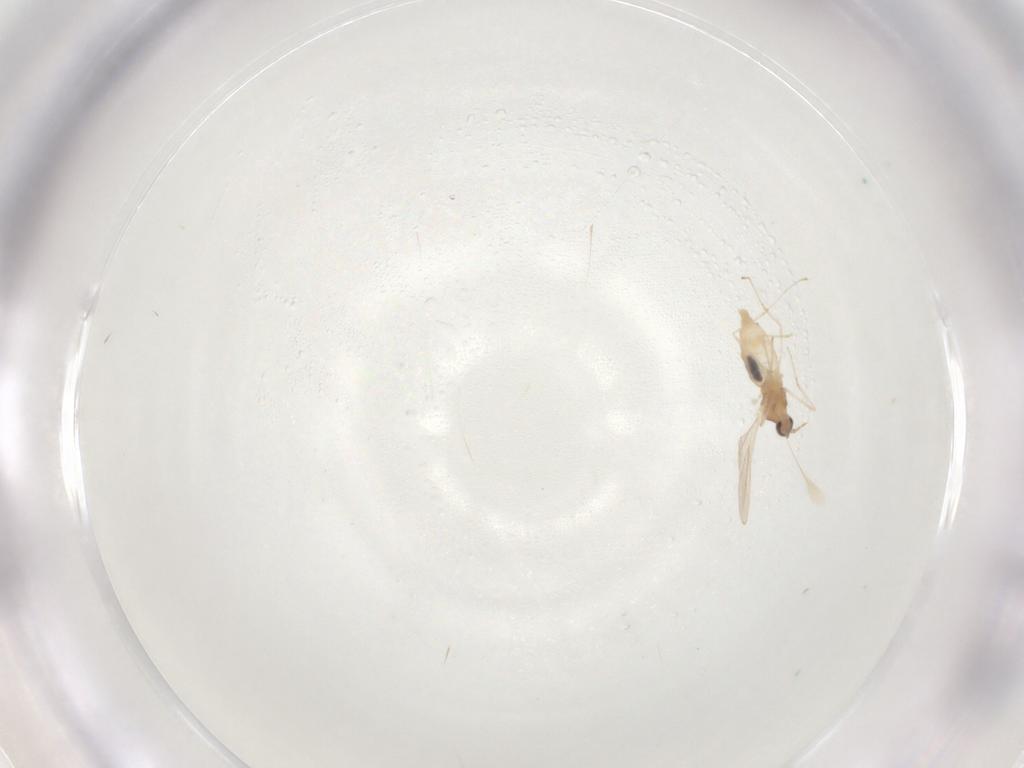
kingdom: Animalia
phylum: Arthropoda
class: Insecta
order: Diptera
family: Cecidomyiidae
